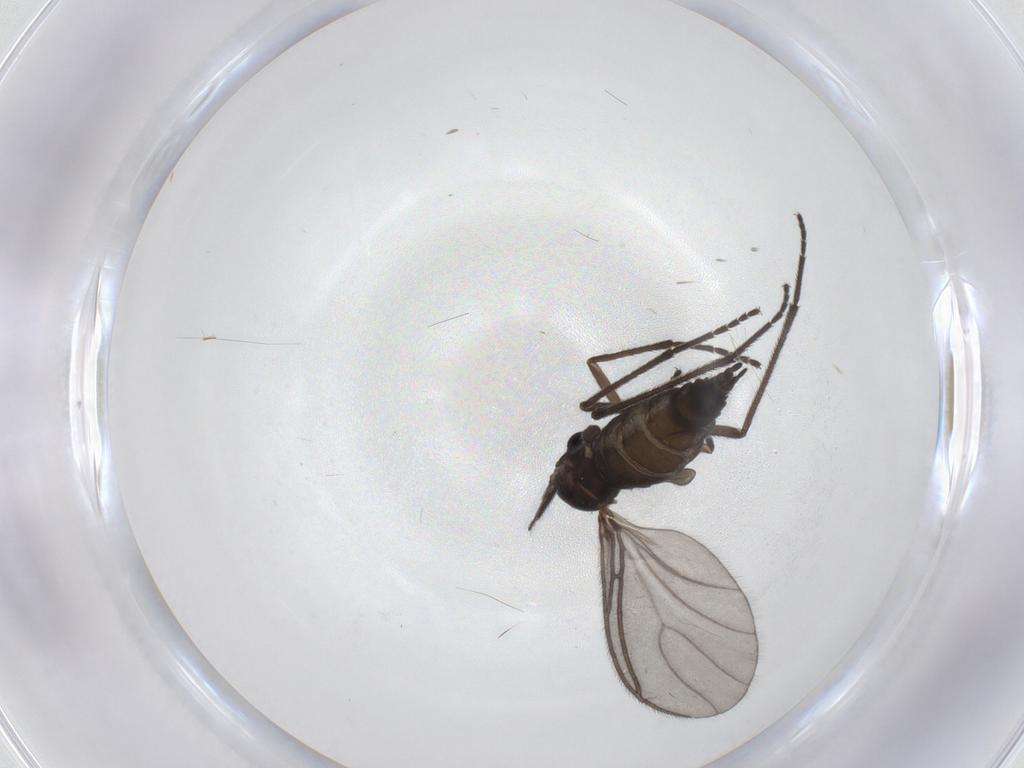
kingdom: Animalia
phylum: Arthropoda
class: Insecta
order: Diptera
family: Sciaridae
